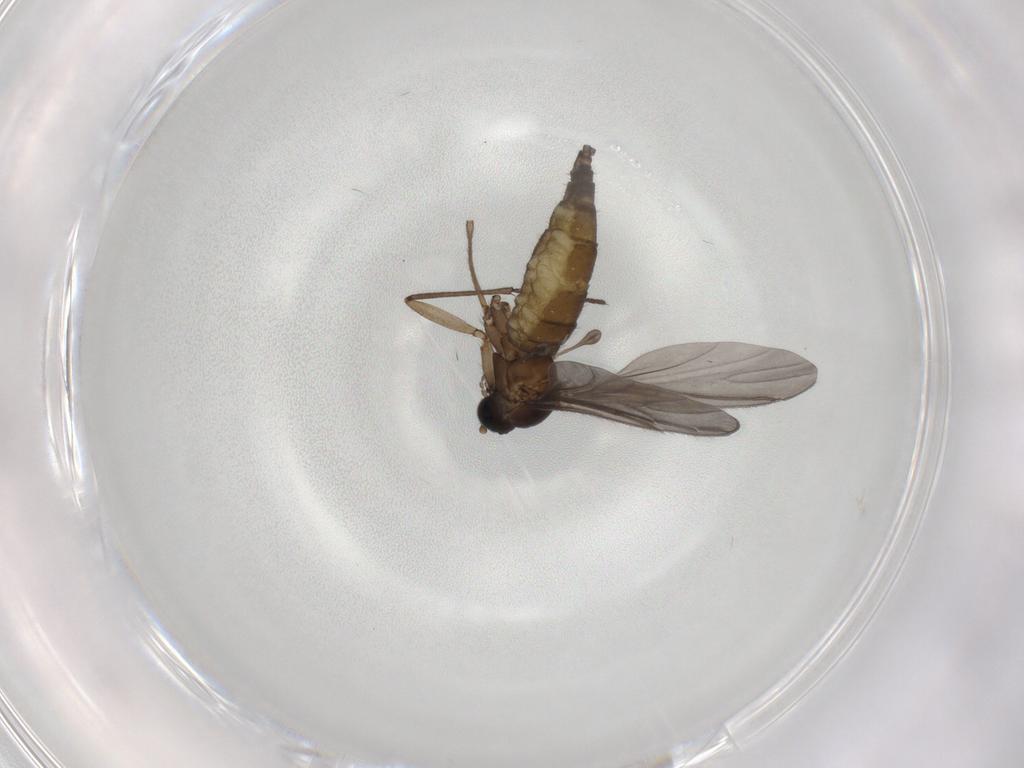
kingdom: Animalia
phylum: Arthropoda
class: Insecta
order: Diptera
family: Sciaridae
